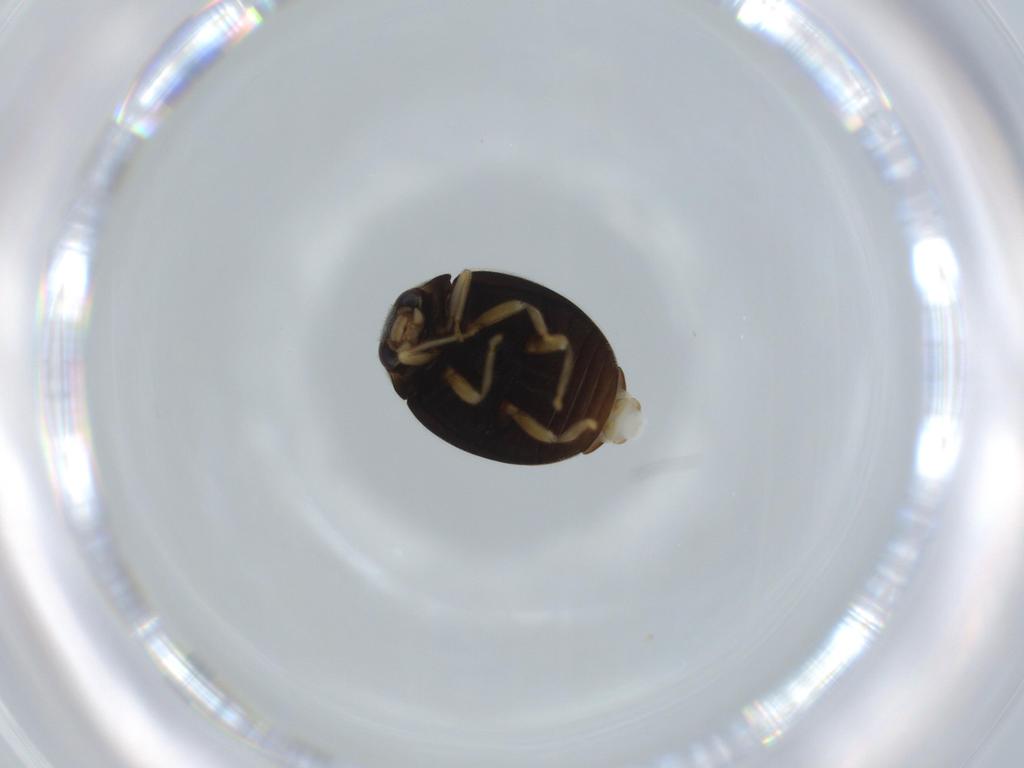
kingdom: Animalia
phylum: Arthropoda
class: Insecta
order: Coleoptera
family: Coccinellidae
